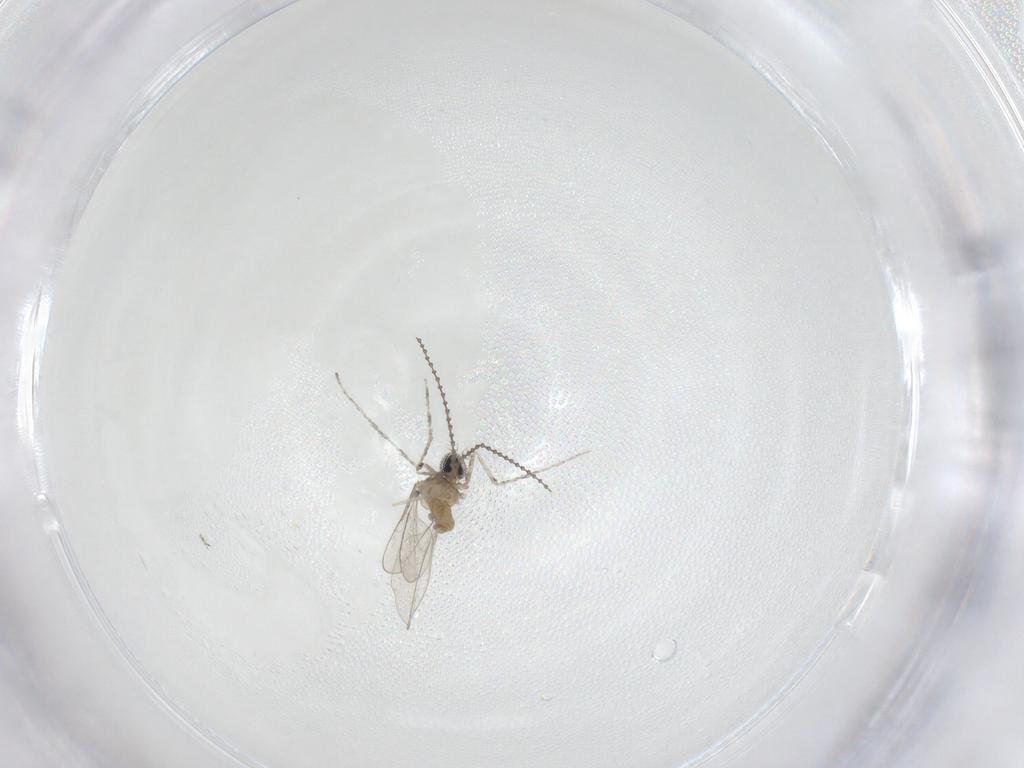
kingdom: Animalia
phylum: Arthropoda
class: Insecta
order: Diptera
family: Cecidomyiidae
